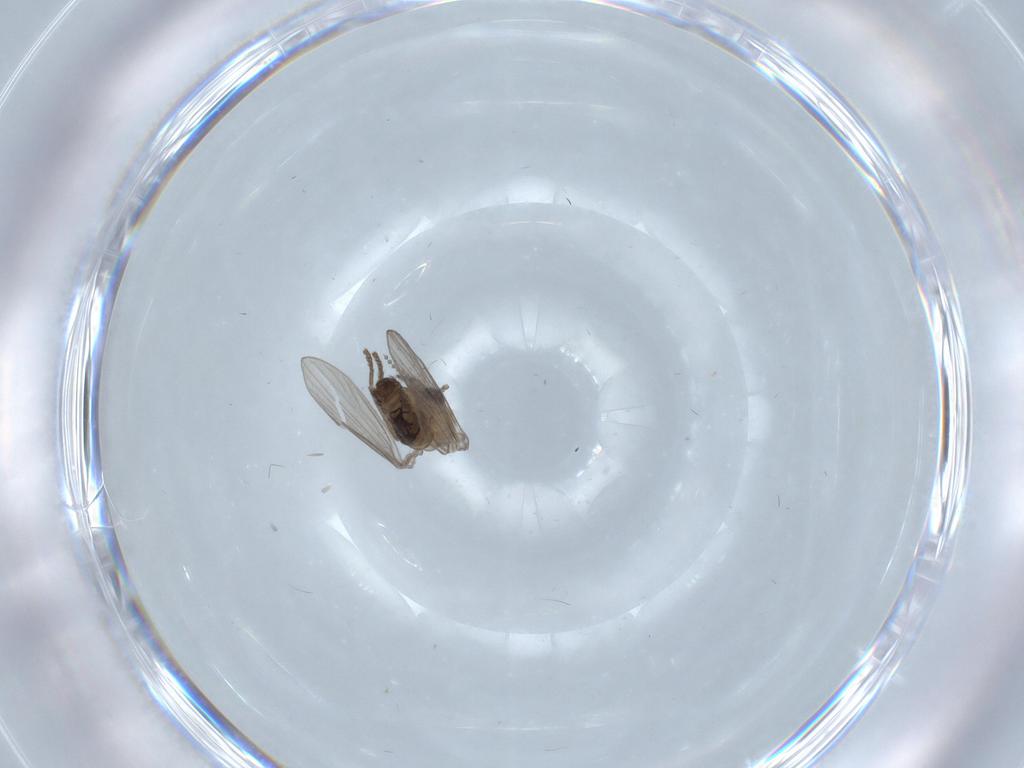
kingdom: Animalia
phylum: Arthropoda
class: Insecta
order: Diptera
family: Psychodidae
